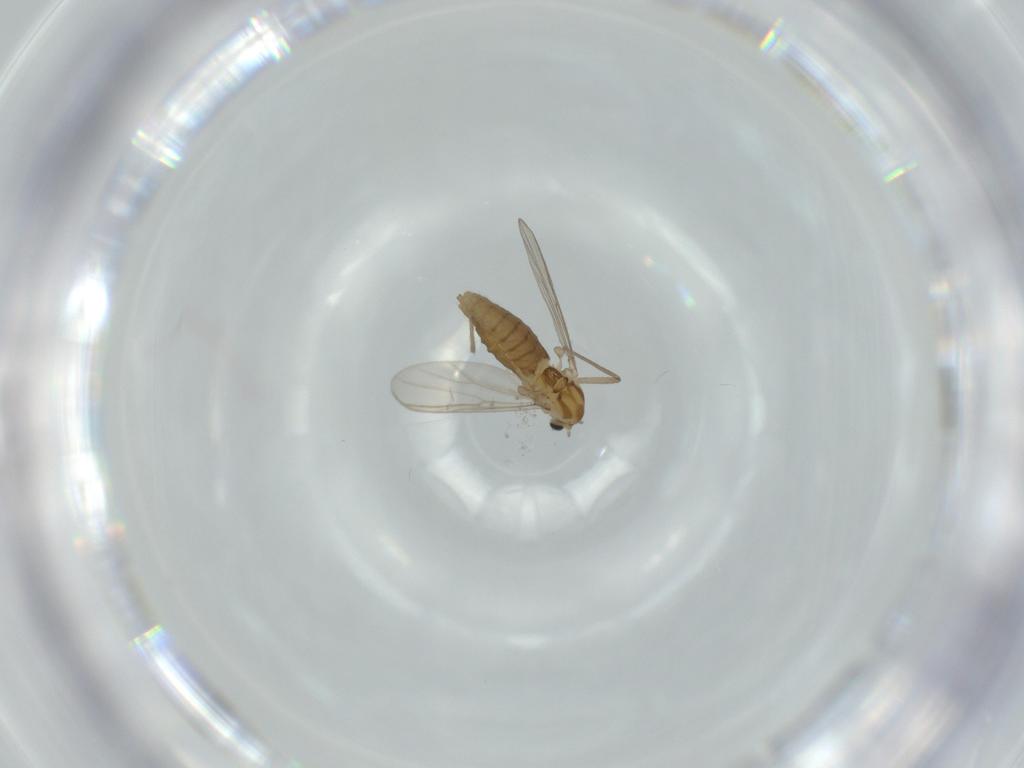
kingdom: Animalia
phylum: Arthropoda
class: Insecta
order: Diptera
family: Chironomidae
